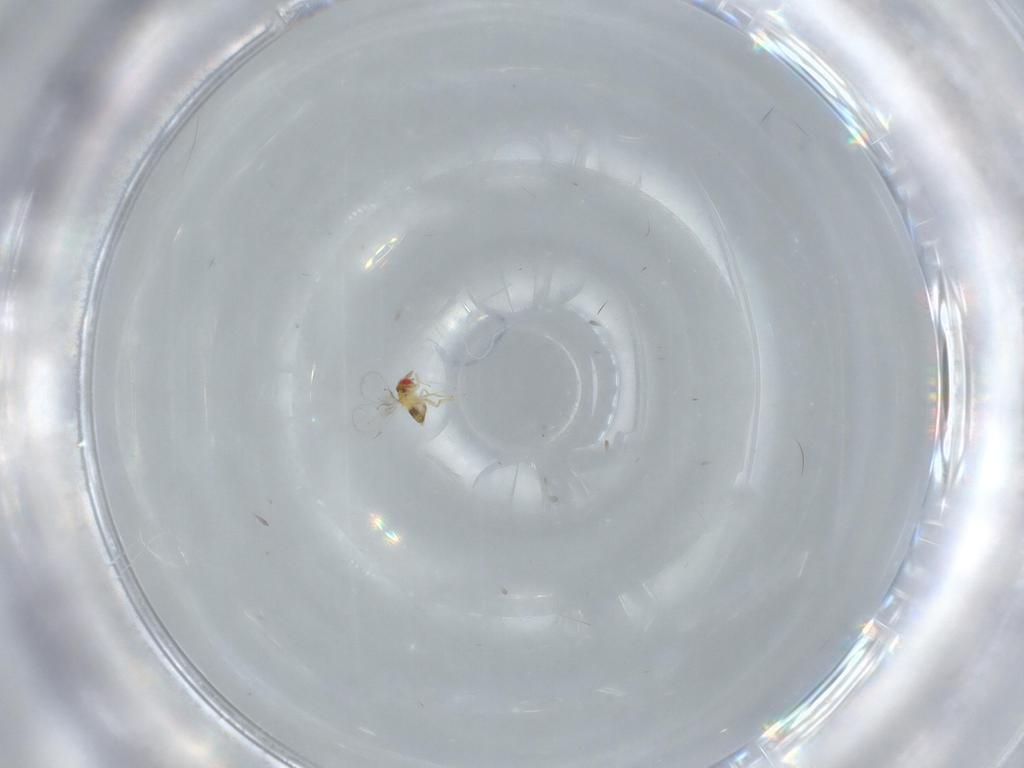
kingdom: Animalia
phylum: Arthropoda
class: Insecta
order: Hymenoptera
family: Trichogrammatidae
